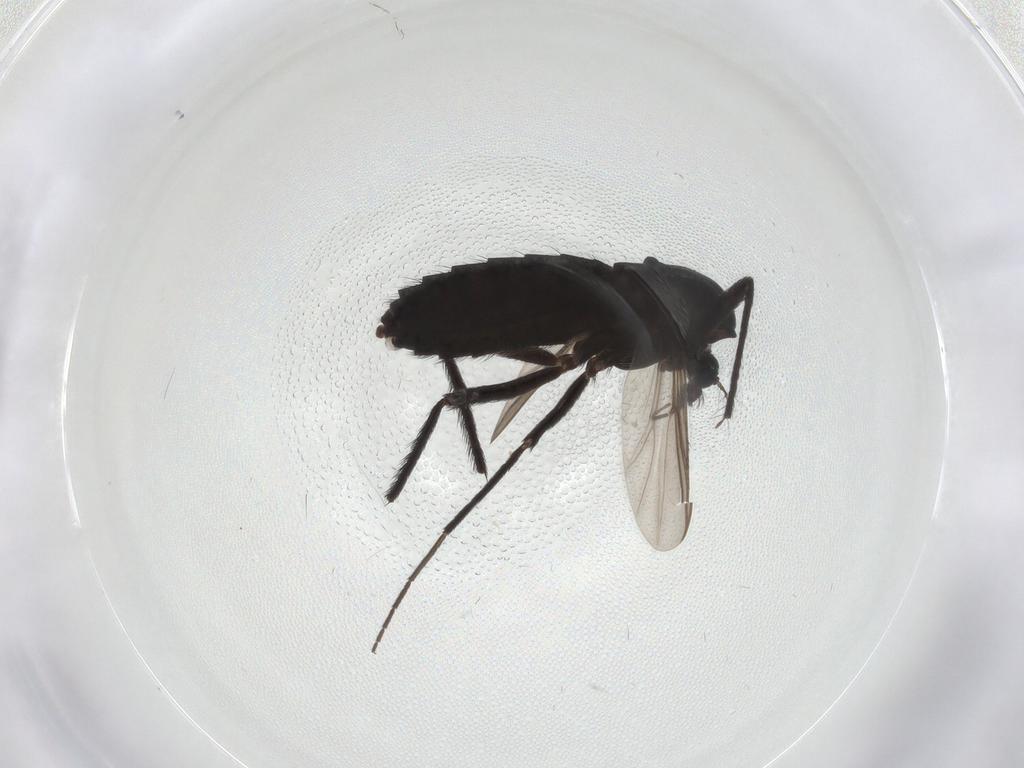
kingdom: Animalia
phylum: Arthropoda
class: Insecta
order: Diptera
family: Chironomidae
